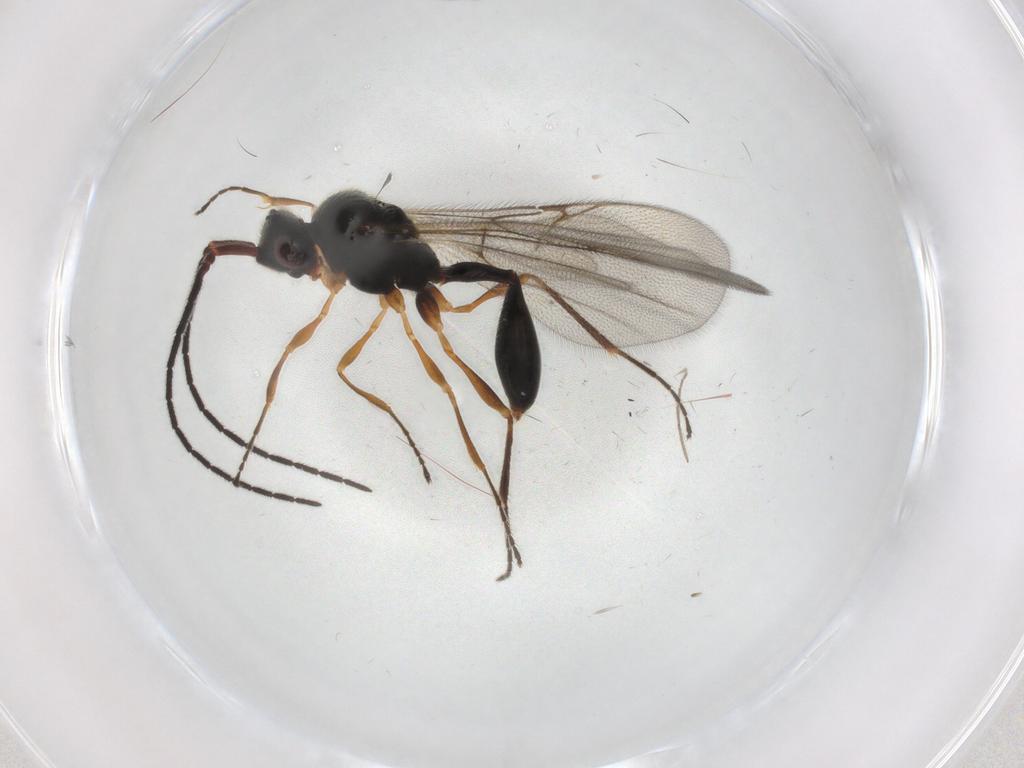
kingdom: Animalia
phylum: Arthropoda
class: Insecta
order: Hymenoptera
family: Diapriidae
